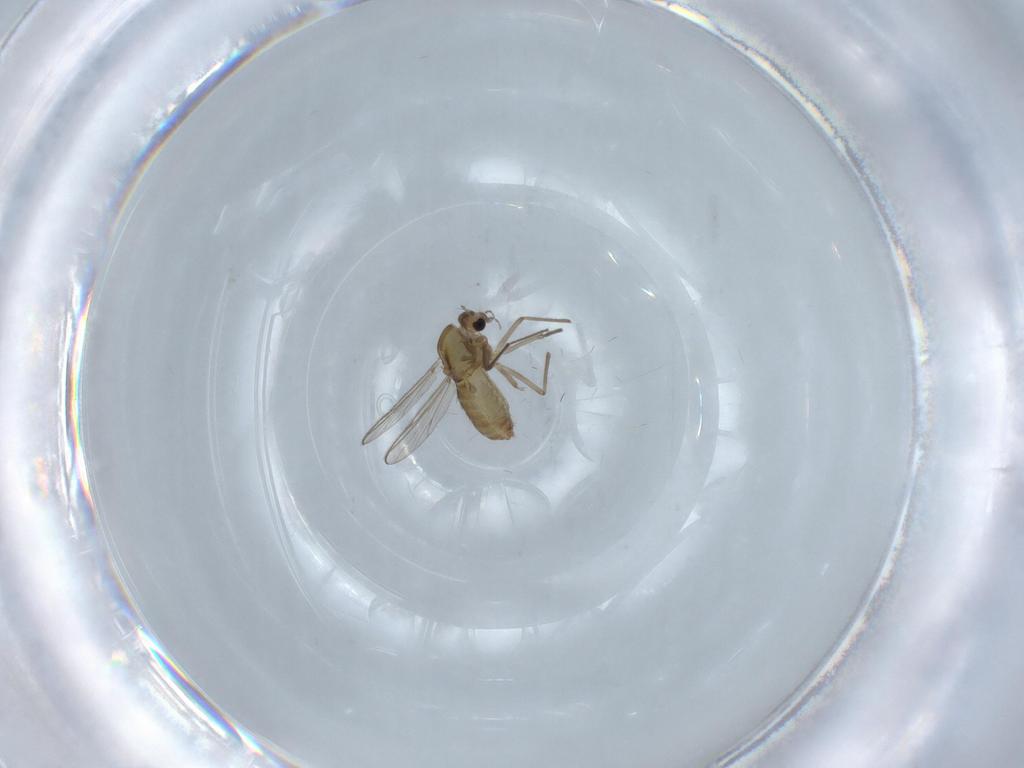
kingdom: Animalia
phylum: Arthropoda
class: Insecta
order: Diptera
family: Chironomidae
